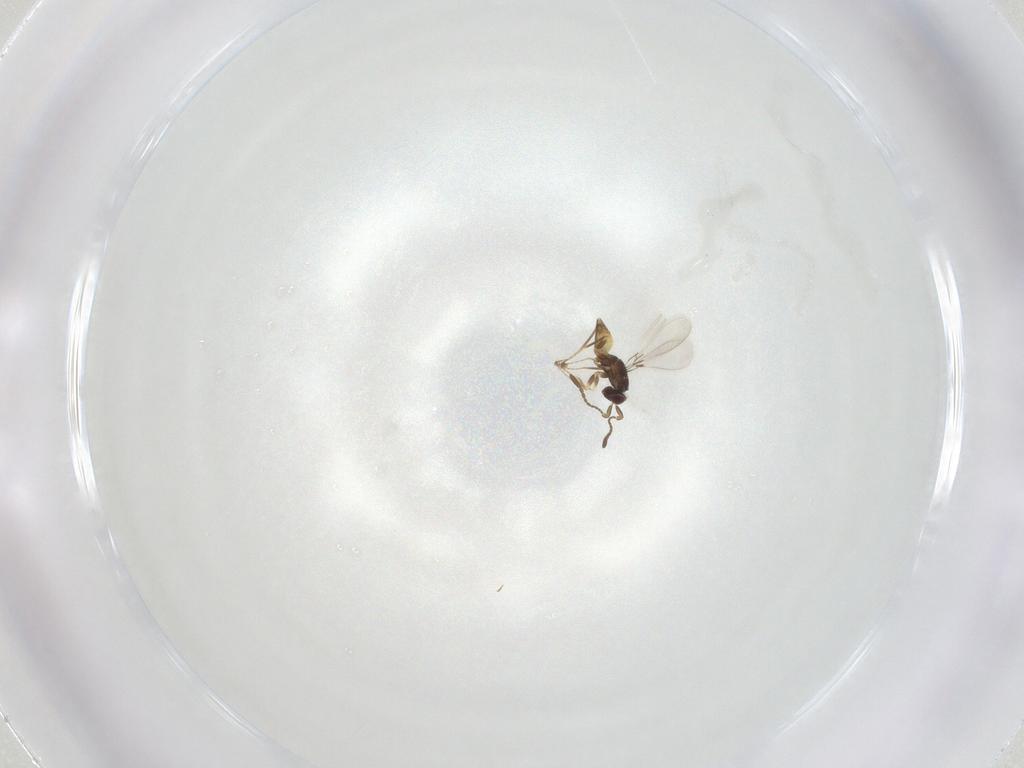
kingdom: Animalia
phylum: Arthropoda
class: Insecta
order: Hymenoptera
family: Mymaridae
